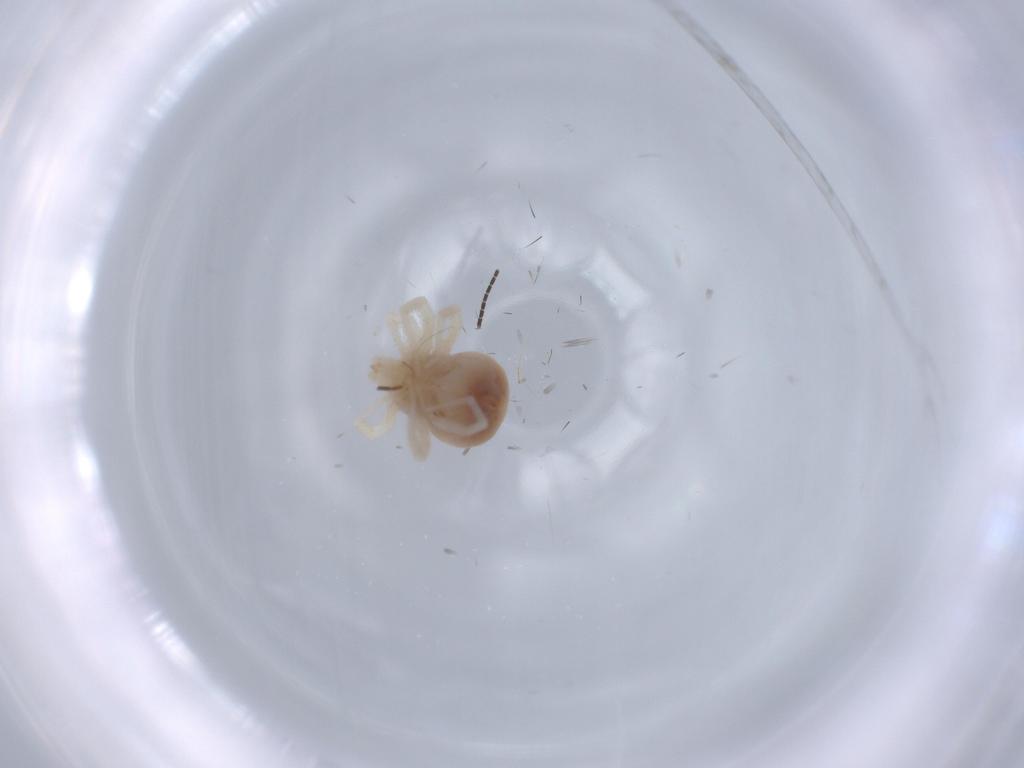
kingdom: Animalia
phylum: Arthropoda
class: Arachnida
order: Trombidiformes
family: Anystidae
